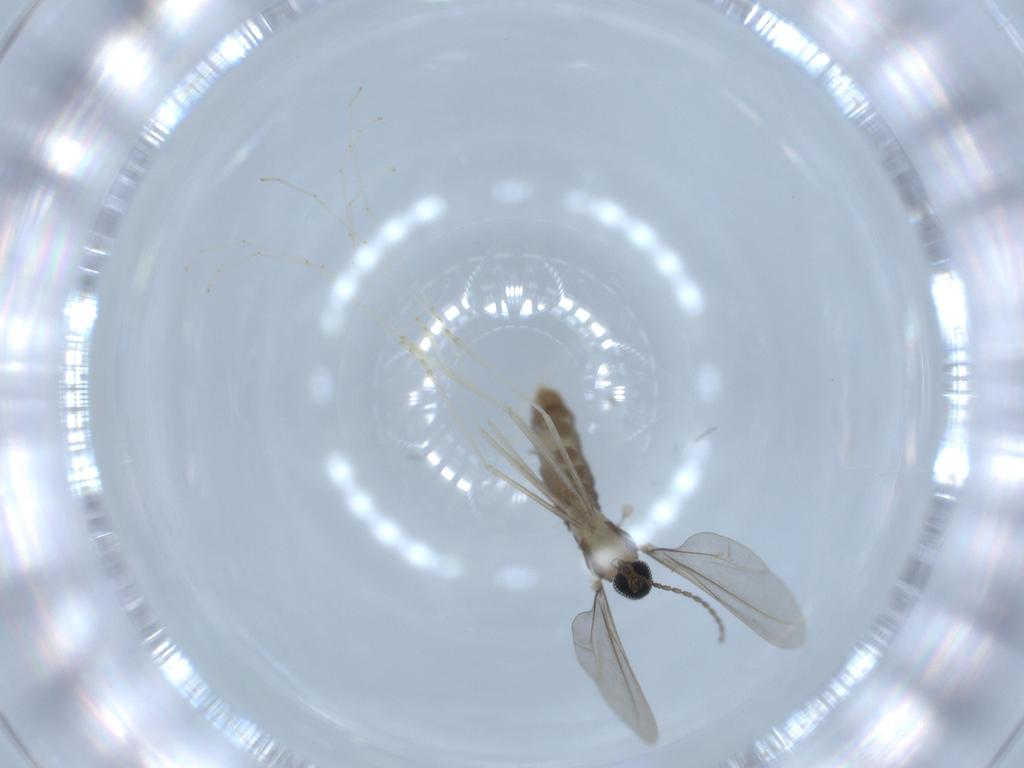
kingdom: Animalia
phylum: Arthropoda
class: Insecta
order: Diptera
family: Cecidomyiidae
